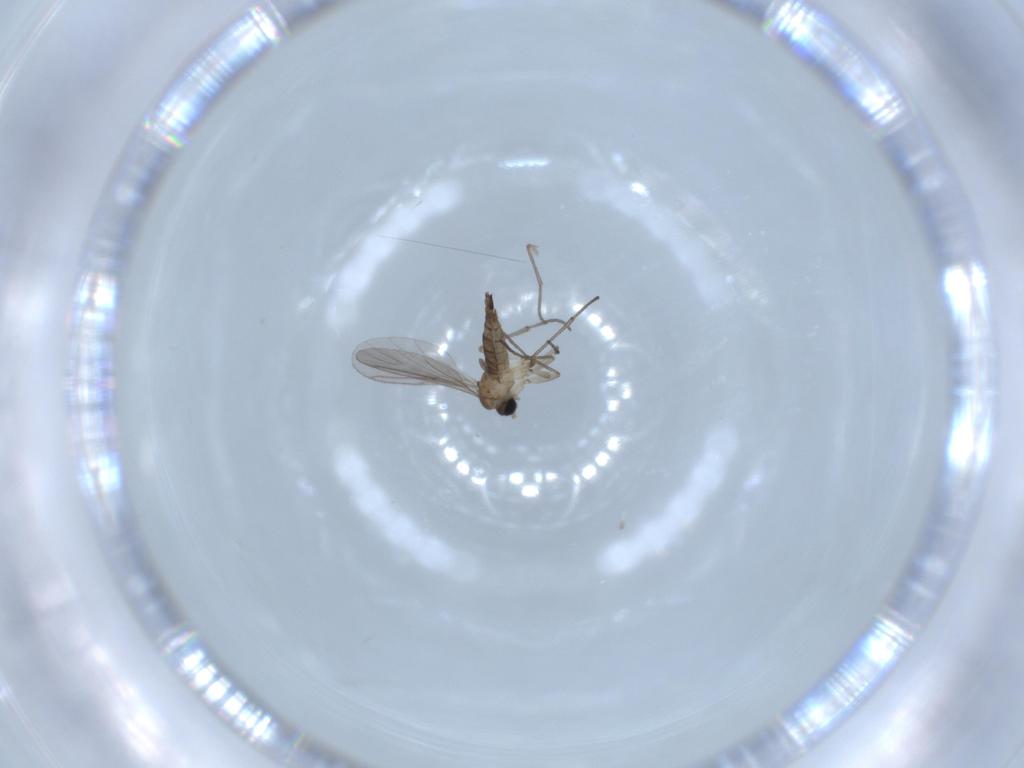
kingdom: Animalia
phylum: Arthropoda
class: Insecta
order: Diptera
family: Sciaridae
